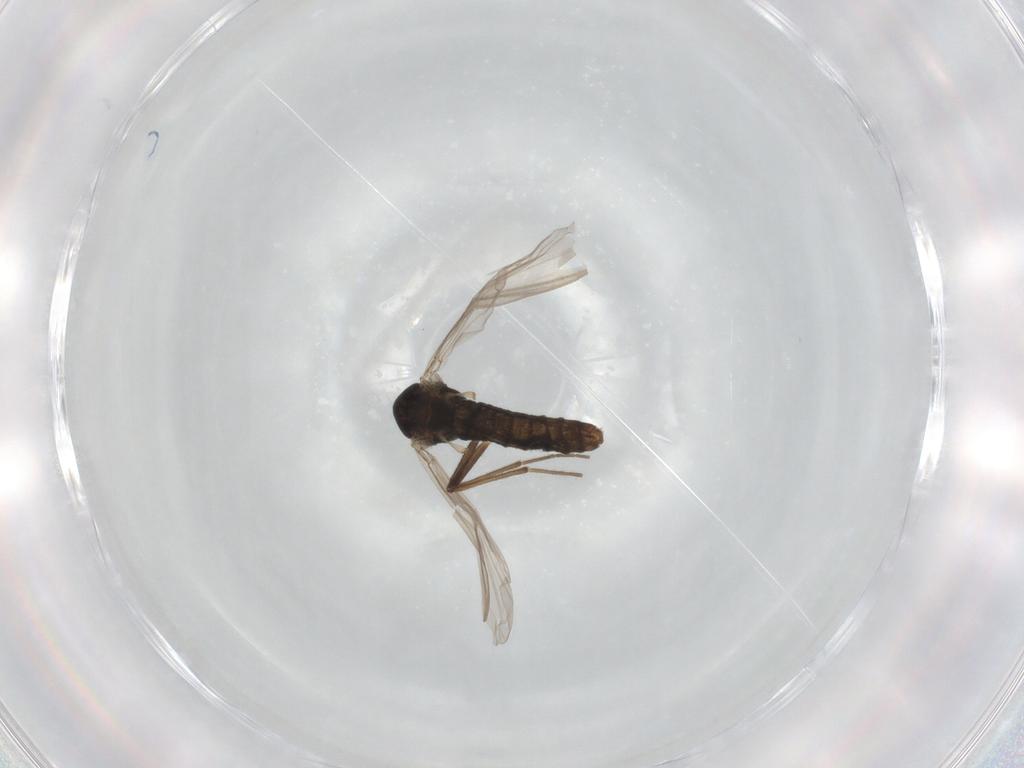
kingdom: Animalia
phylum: Arthropoda
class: Insecta
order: Diptera
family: Chironomidae
